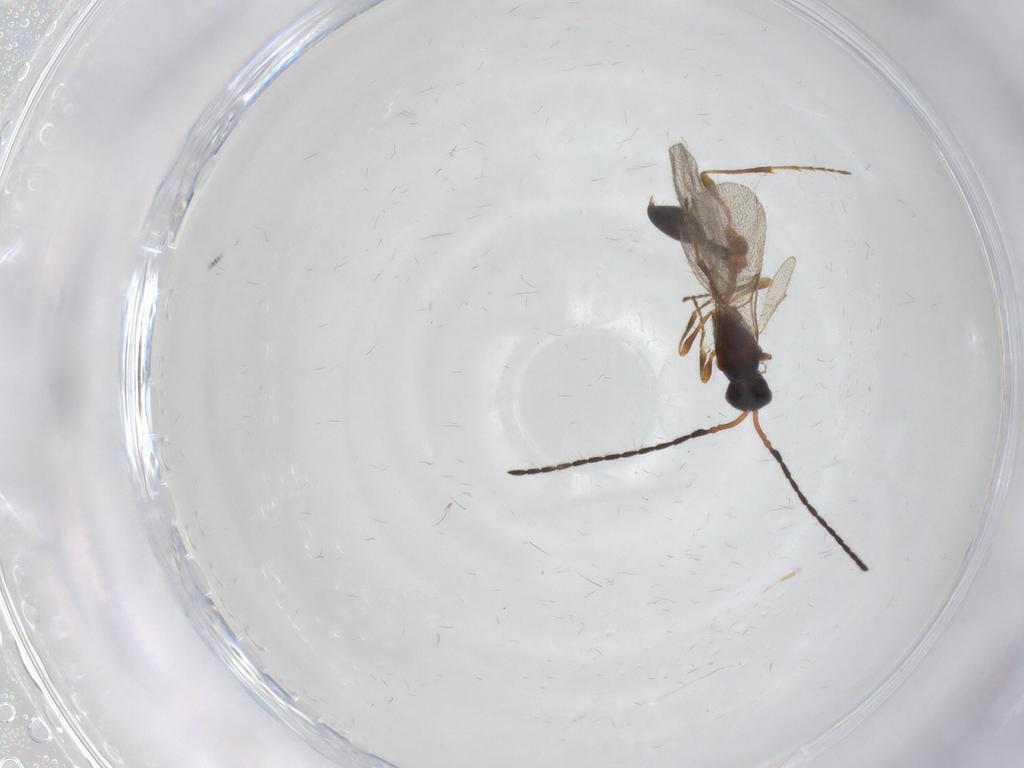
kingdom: Animalia
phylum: Arthropoda
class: Insecta
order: Hymenoptera
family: Diapriidae
